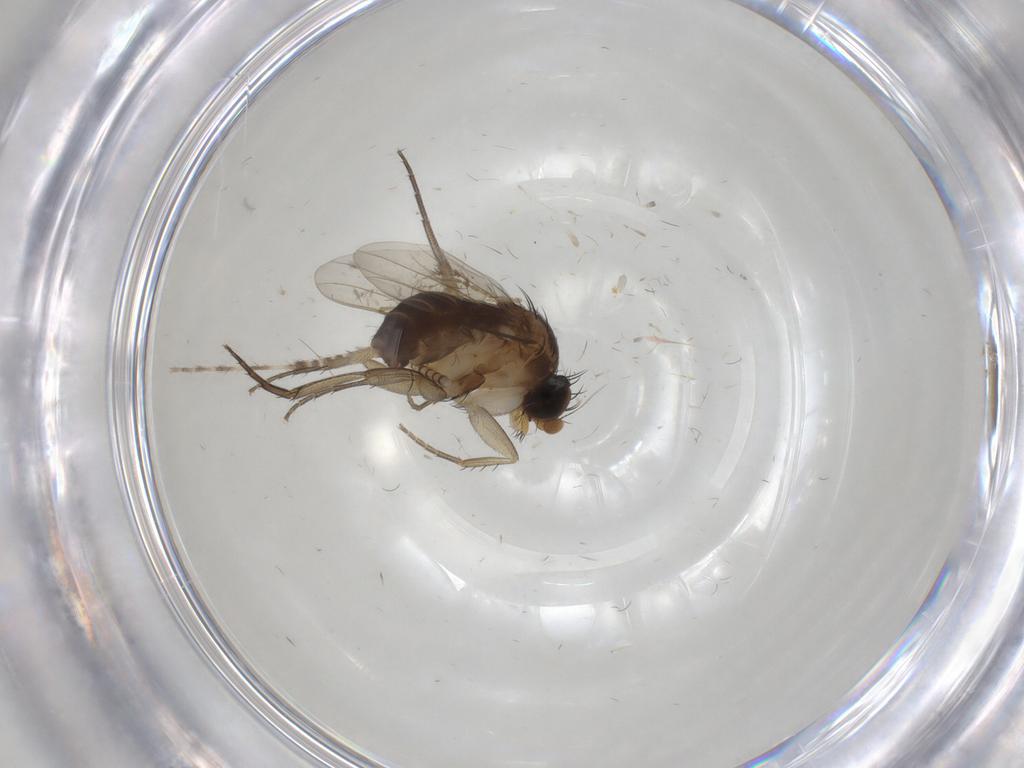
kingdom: Animalia
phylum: Arthropoda
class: Insecta
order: Diptera
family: Phoridae
